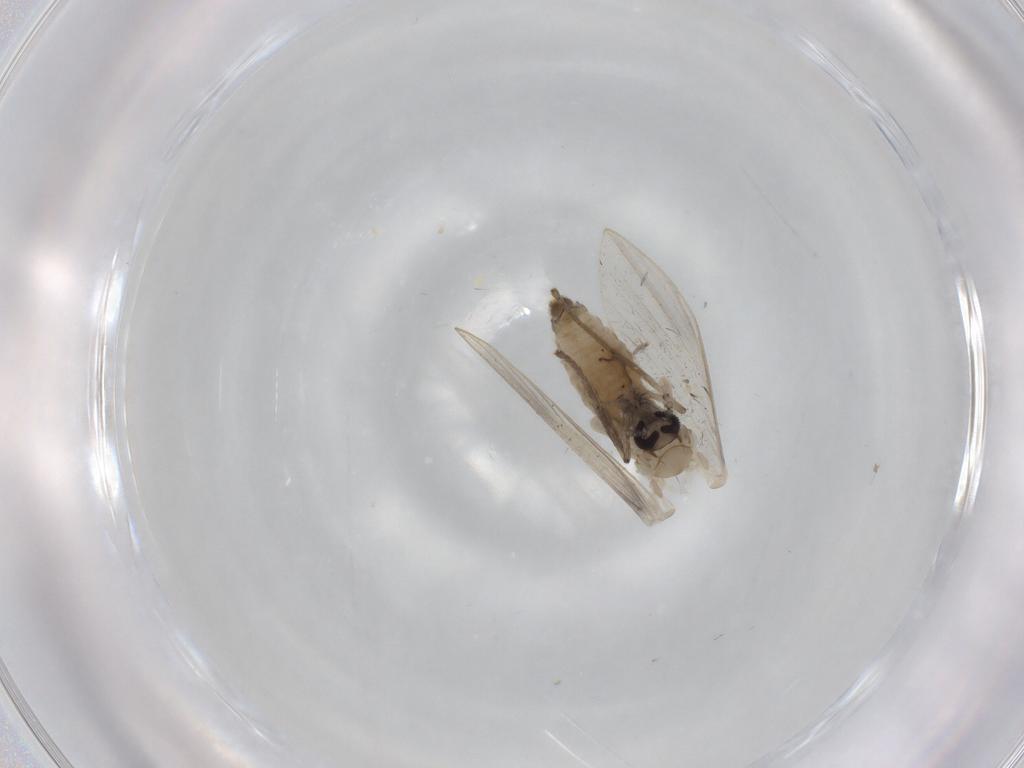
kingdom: Animalia
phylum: Arthropoda
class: Insecta
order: Diptera
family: Psychodidae
